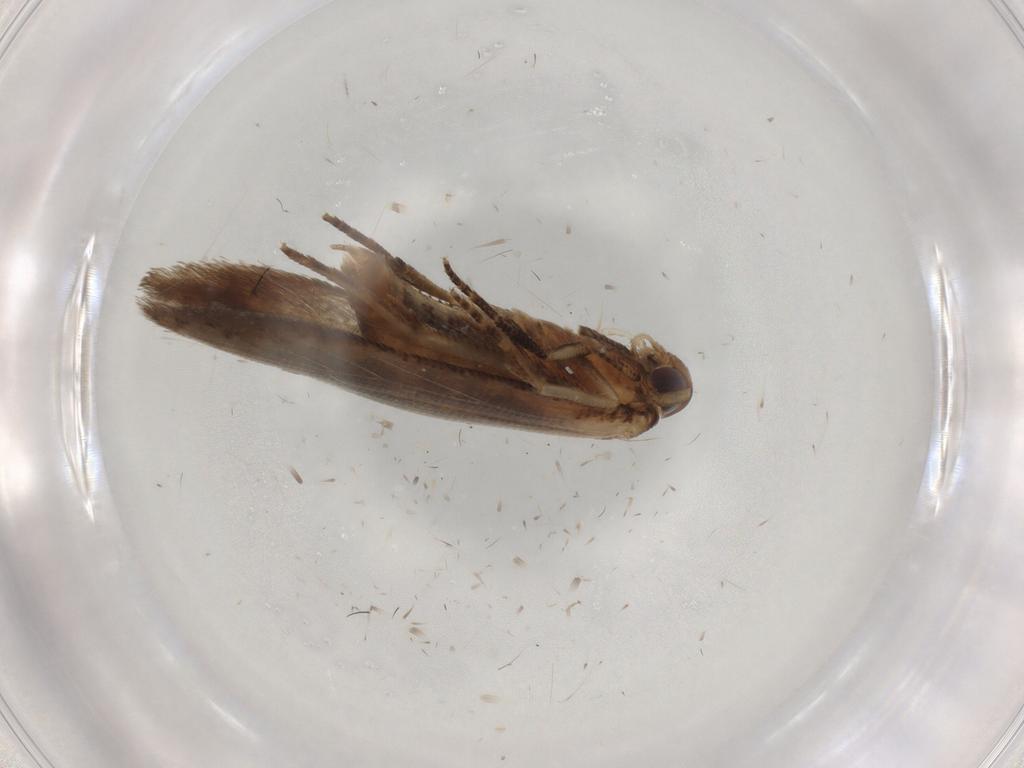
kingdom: Animalia
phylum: Arthropoda
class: Insecta
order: Lepidoptera
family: Cosmopterigidae
